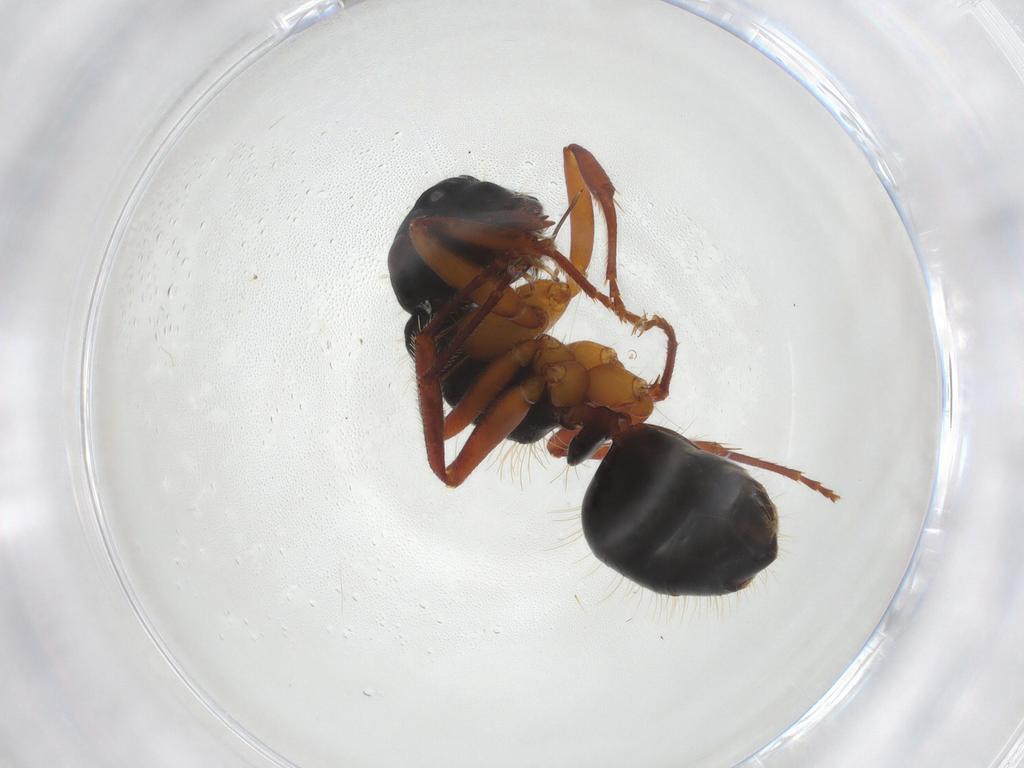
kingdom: Animalia
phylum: Arthropoda
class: Insecta
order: Hymenoptera
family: Formicidae
